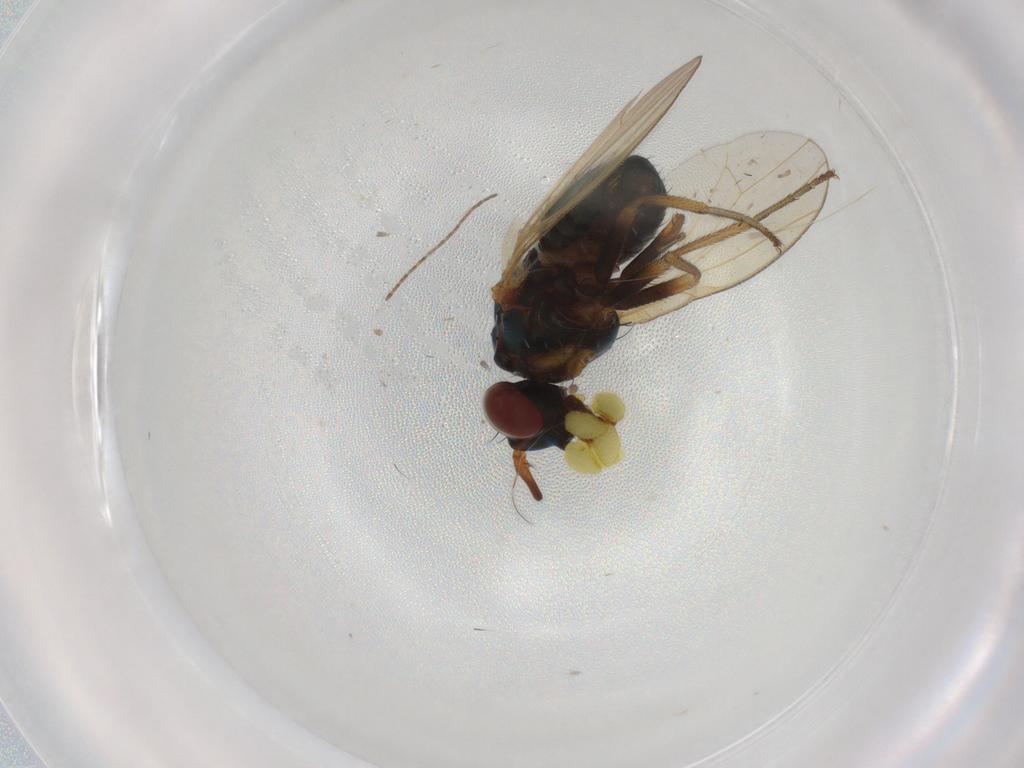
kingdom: Animalia
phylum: Arthropoda
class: Insecta
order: Diptera
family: Lauxaniidae
